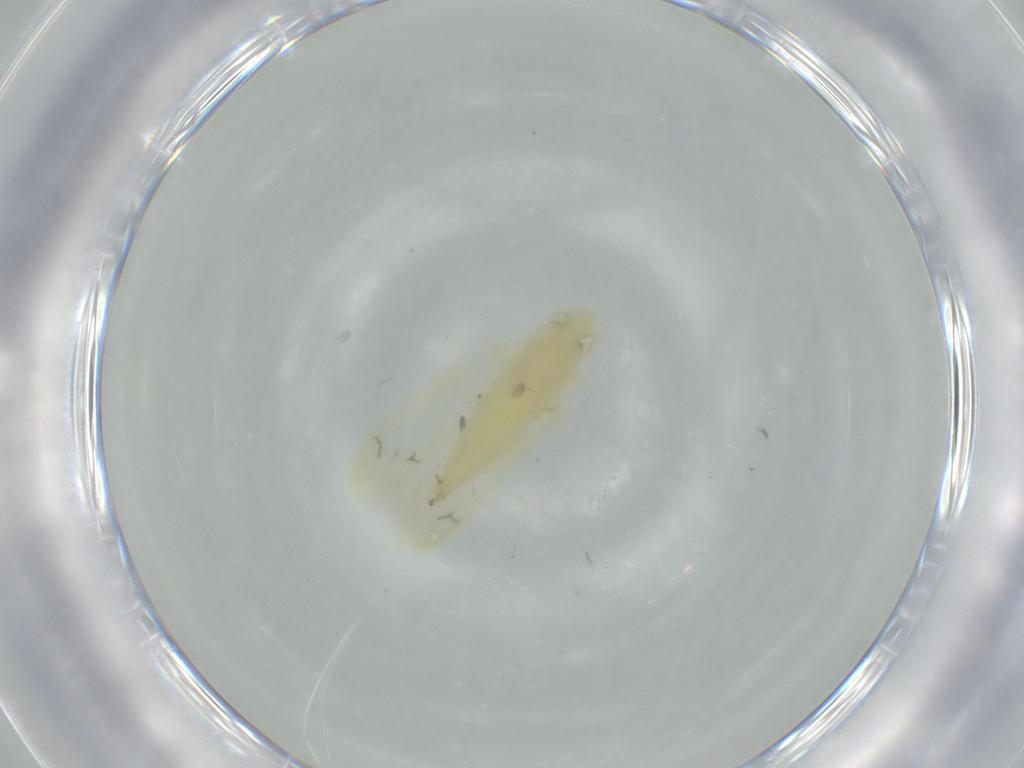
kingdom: Animalia
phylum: Arthropoda
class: Insecta
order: Hemiptera
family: Cicadellidae
